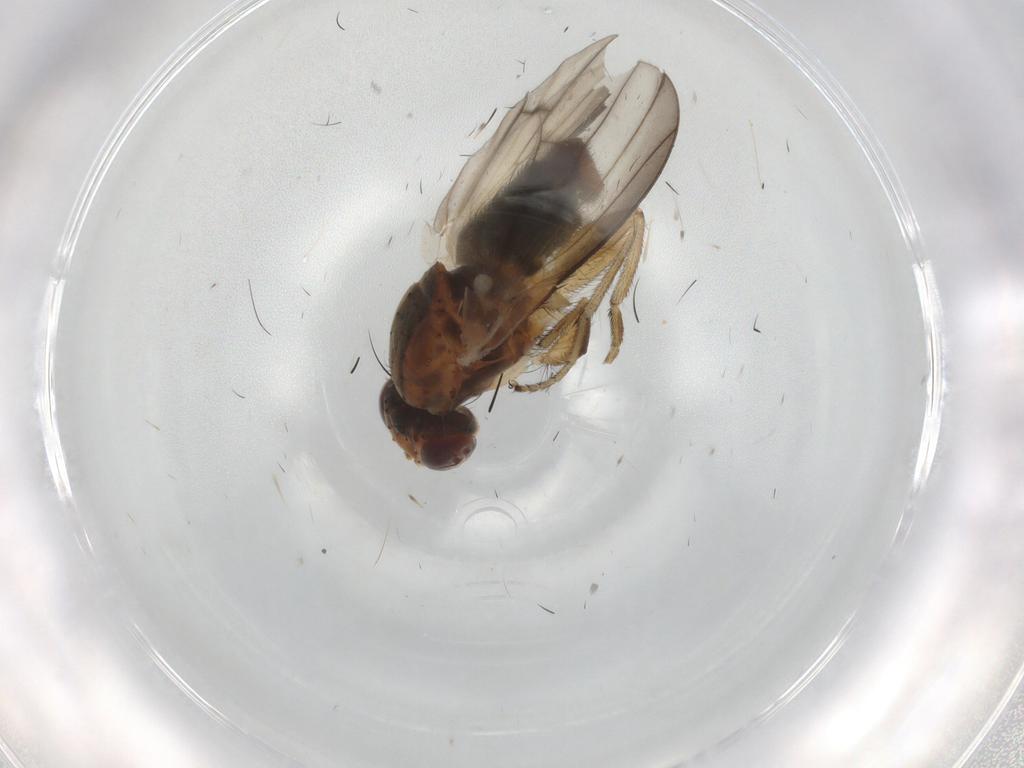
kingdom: Animalia
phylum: Arthropoda
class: Insecta
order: Diptera
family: Heleomyzidae
